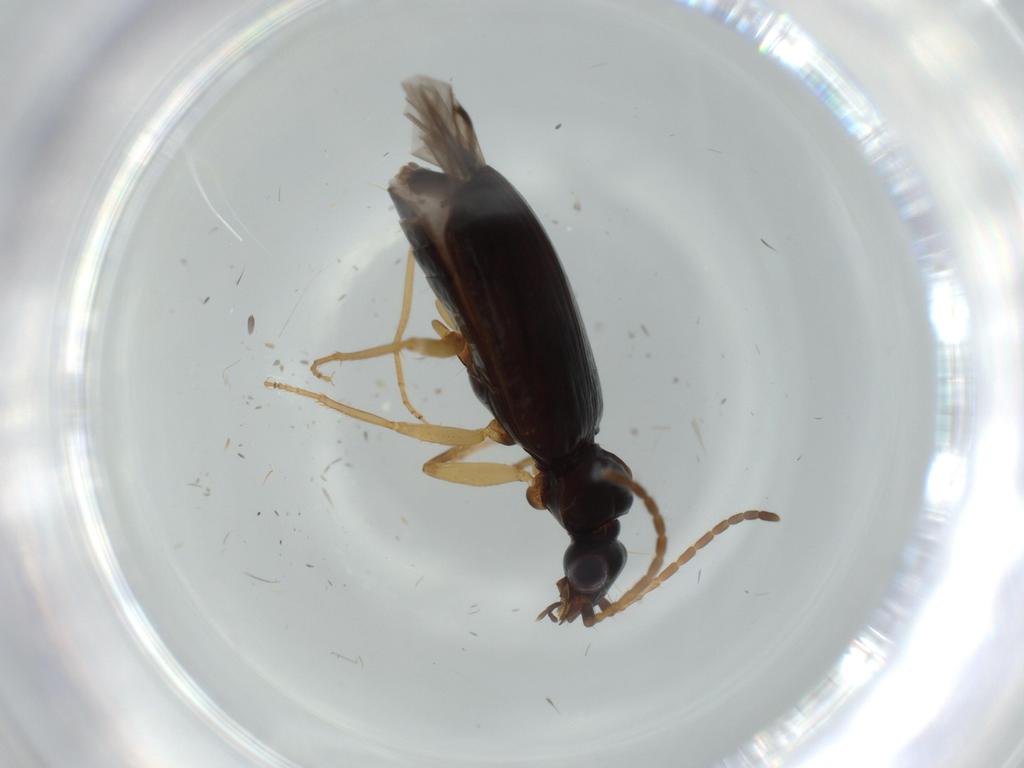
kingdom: Animalia
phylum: Arthropoda
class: Insecta
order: Coleoptera
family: Carabidae
